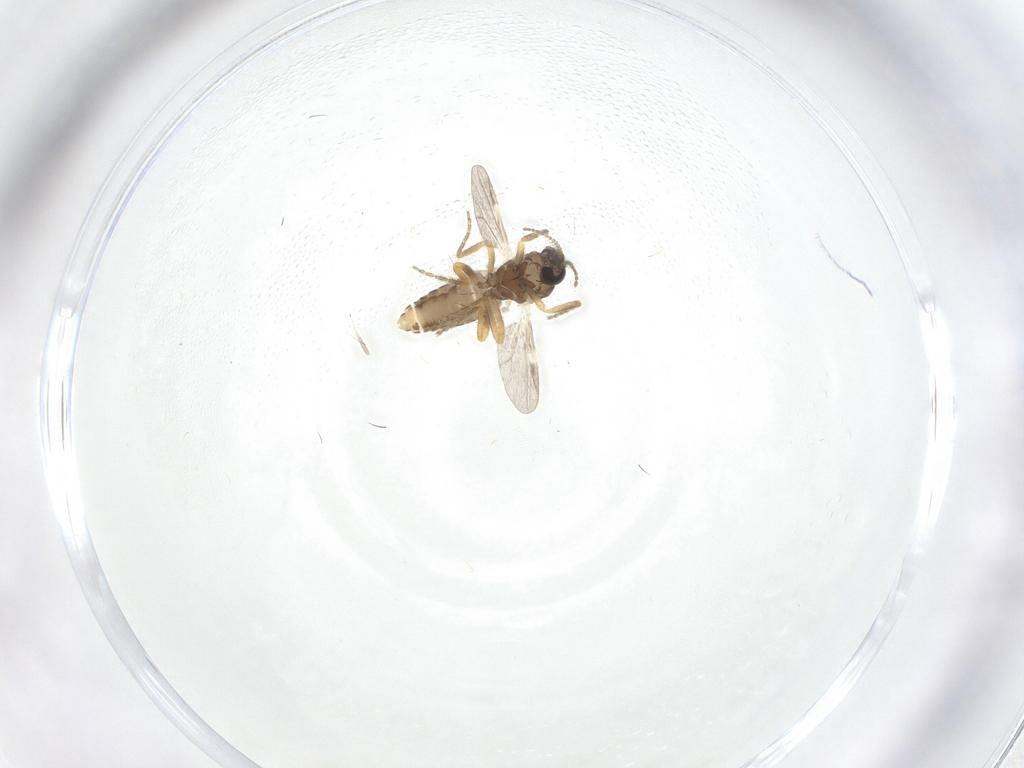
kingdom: Animalia
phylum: Arthropoda
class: Insecta
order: Diptera
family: Ceratopogonidae
